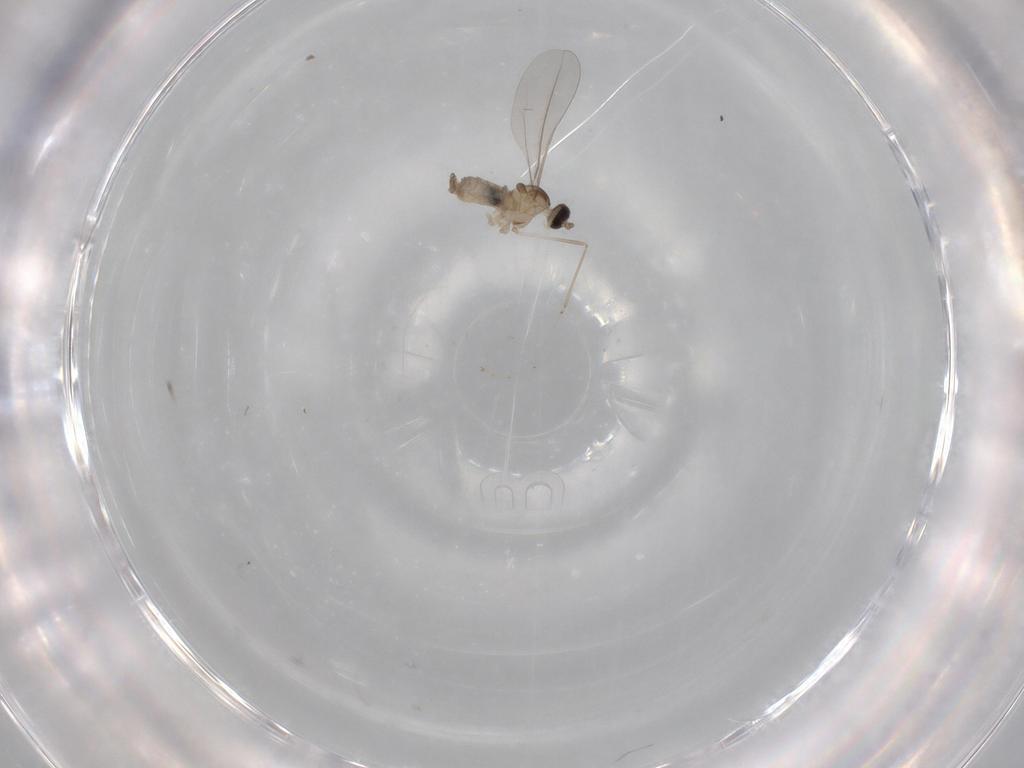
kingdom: Animalia
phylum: Arthropoda
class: Insecta
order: Diptera
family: Cecidomyiidae
